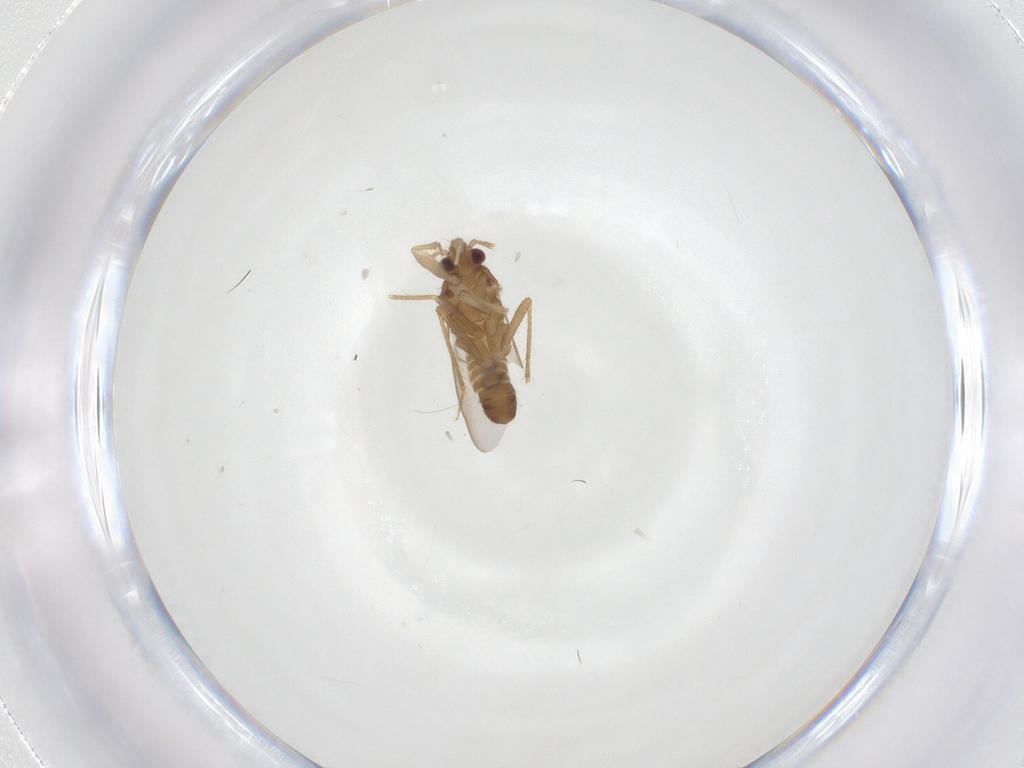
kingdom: Animalia
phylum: Arthropoda
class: Insecta
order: Hemiptera
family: Ceratocombidae
